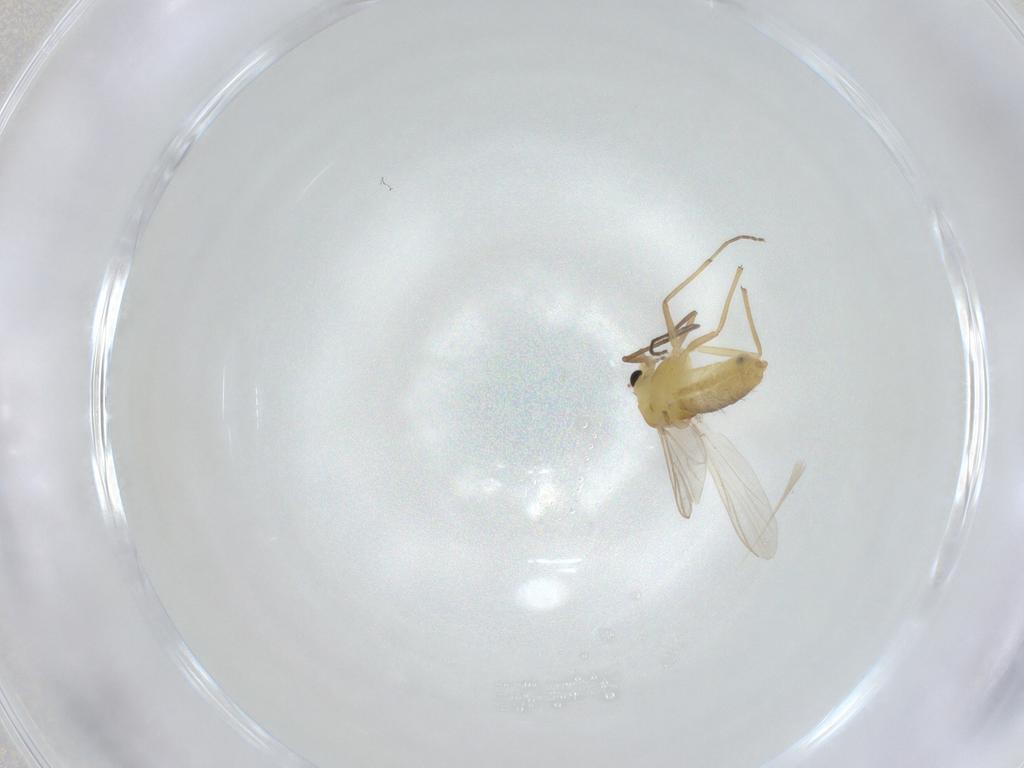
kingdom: Animalia
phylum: Arthropoda
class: Insecta
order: Diptera
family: Chironomidae
